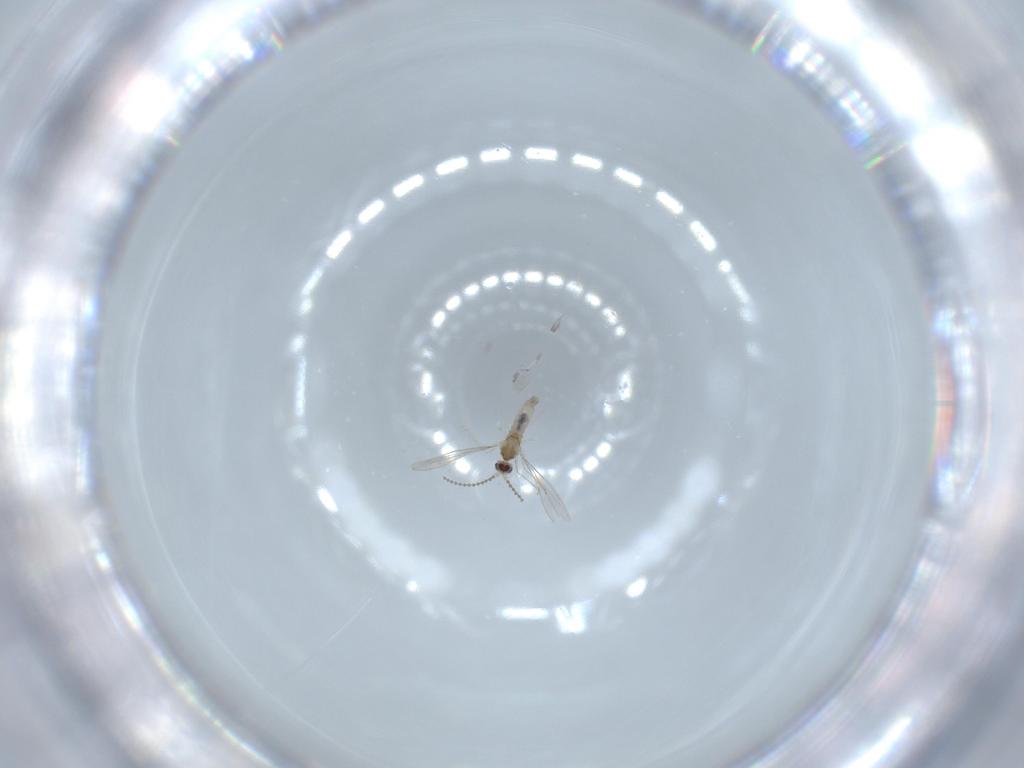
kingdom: Animalia
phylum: Arthropoda
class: Insecta
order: Diptera
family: Cecidomyiidae
